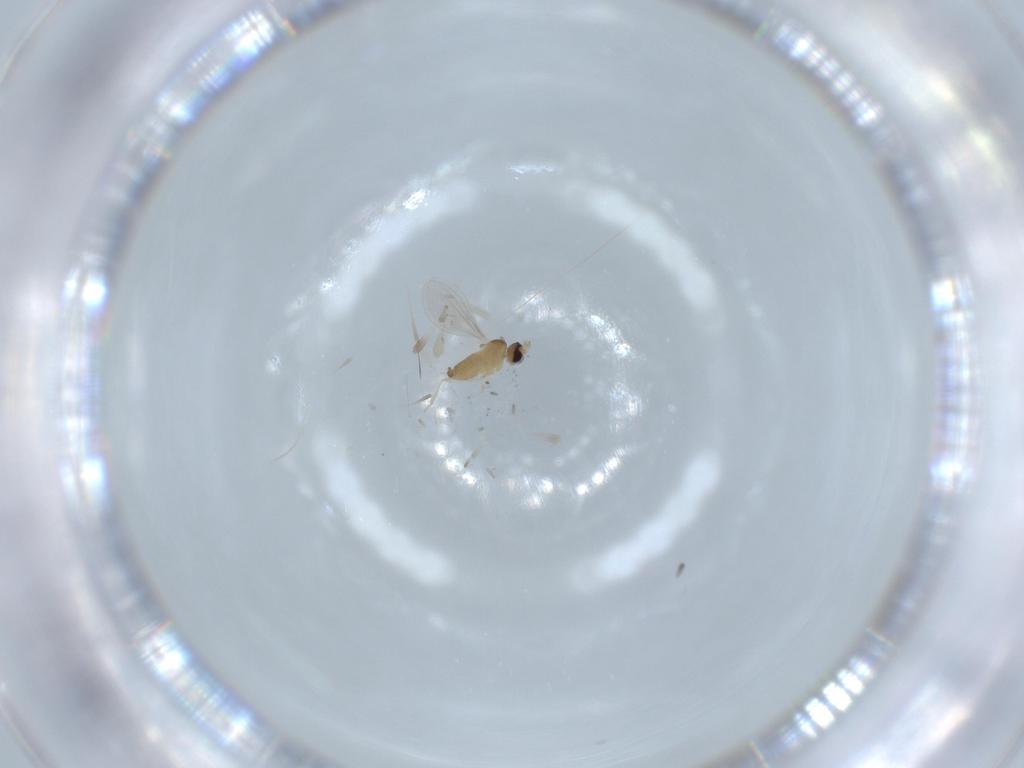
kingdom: Animalia
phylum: Arthropoda
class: Insecta
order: Diptera
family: Cecidomyiidae
